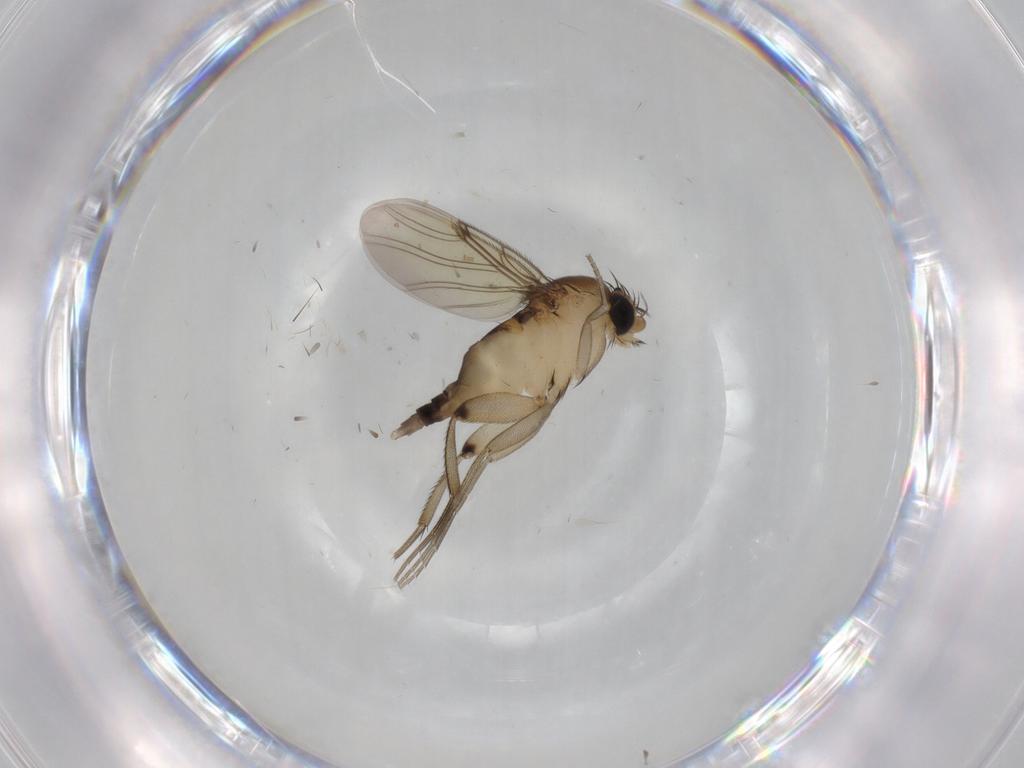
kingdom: Animalia
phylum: Arthropoda
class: Insecta
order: Diptera
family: Phoridae
